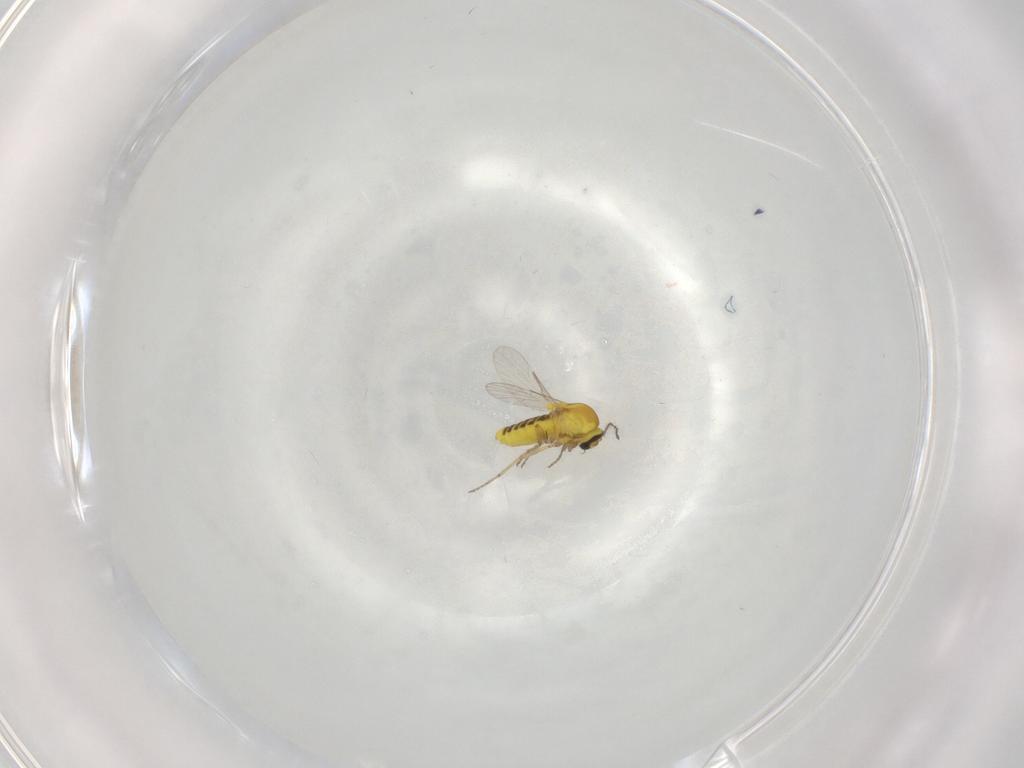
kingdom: Animalia
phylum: Arthropoda
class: Insecta
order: Diptera
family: Ceratopogonidae
